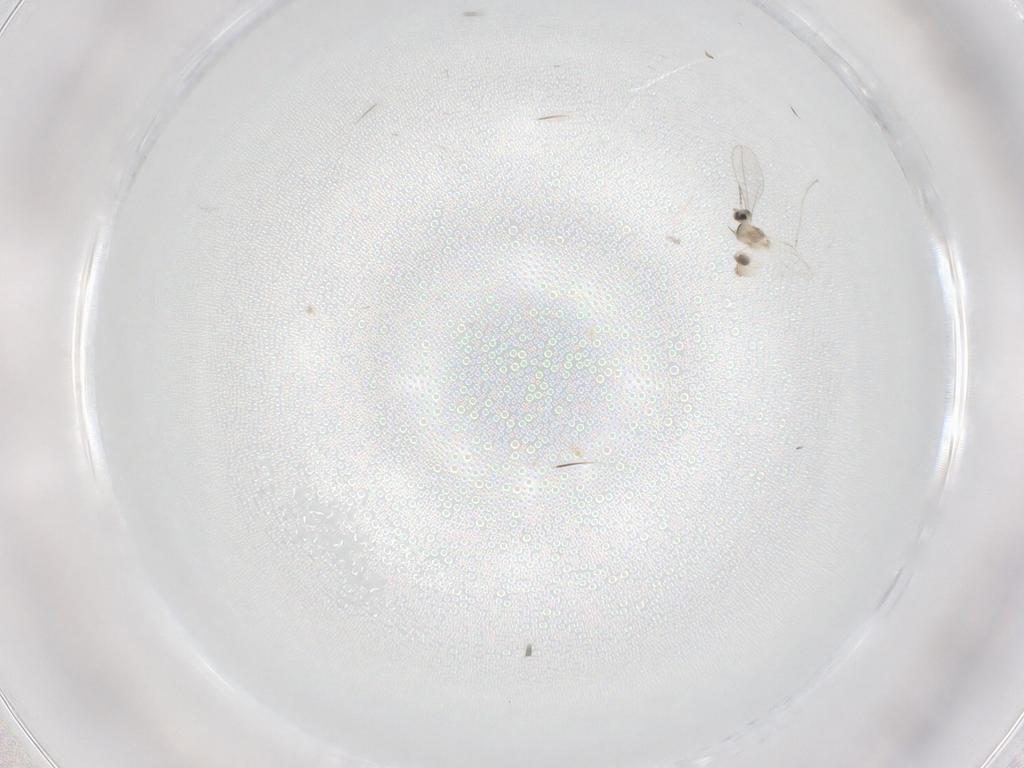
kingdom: Animalia
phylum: Arthropoda
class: Insecta
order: Diptera
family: Cecidomyiidae
